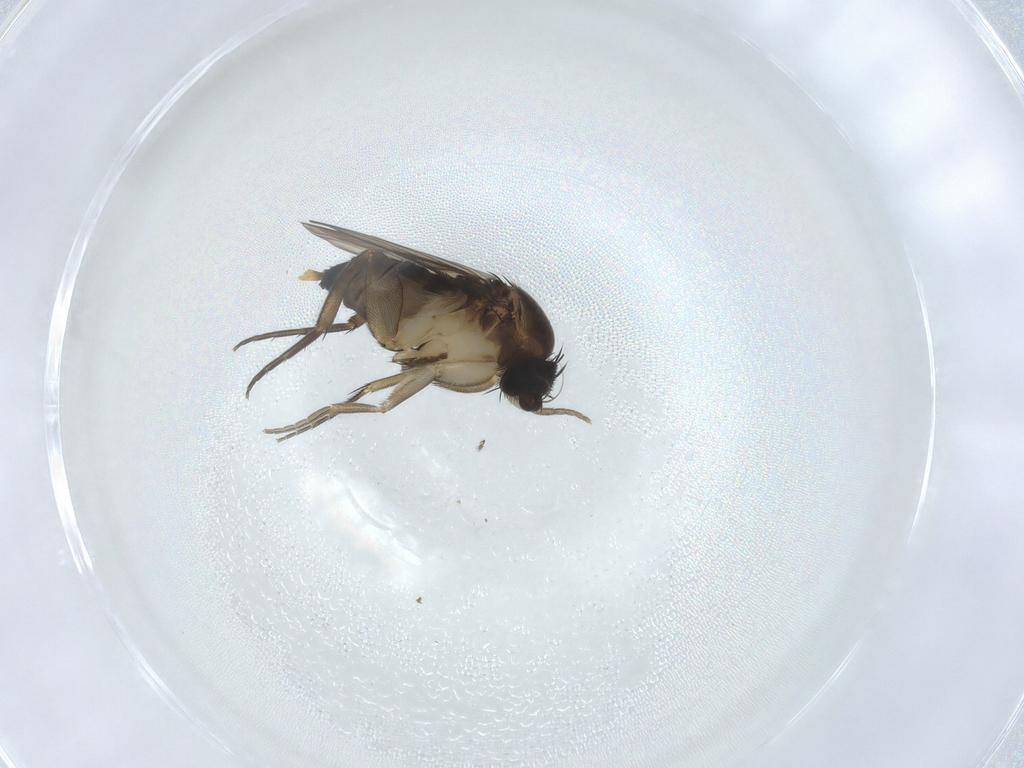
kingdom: Animalia
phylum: Arthropoda
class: Insecta
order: Diptera
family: Phoridae
